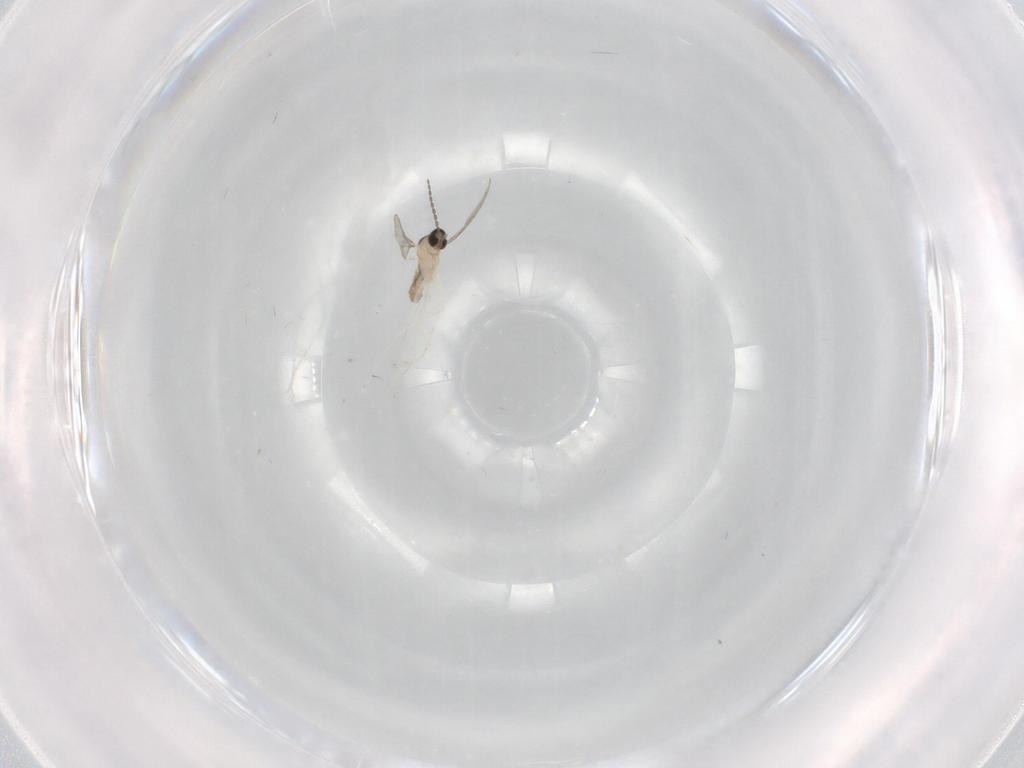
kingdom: Animalia
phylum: Arthropoda
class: Insecta
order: Diptera
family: Cecidomyiidae
